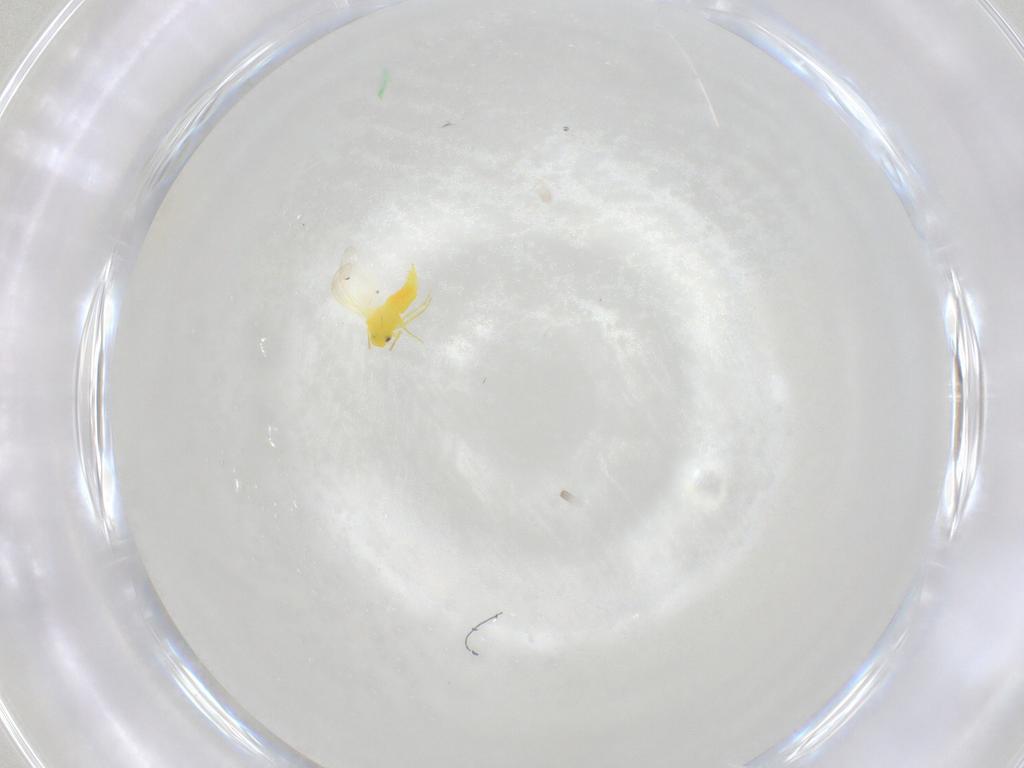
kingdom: Animalia
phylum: Arthropoda
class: Insecta
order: Hemiptera
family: Aleyrodidae
